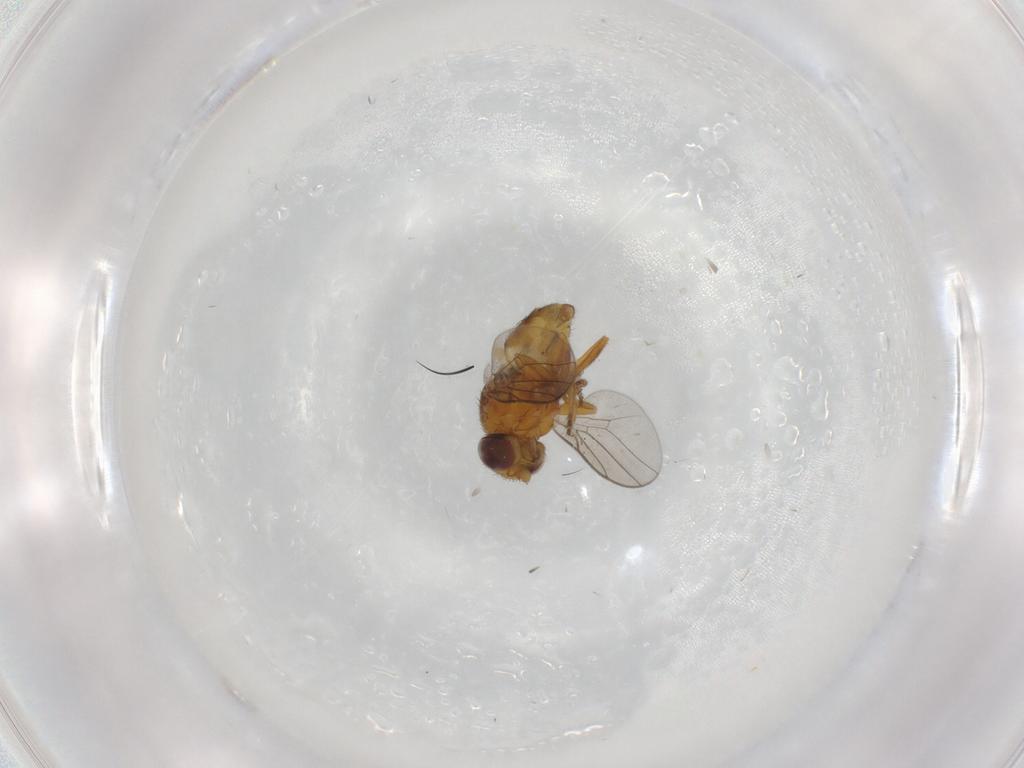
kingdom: Animalia
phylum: Arthropoda
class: Insecta
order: Diptera
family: Chloropidae
